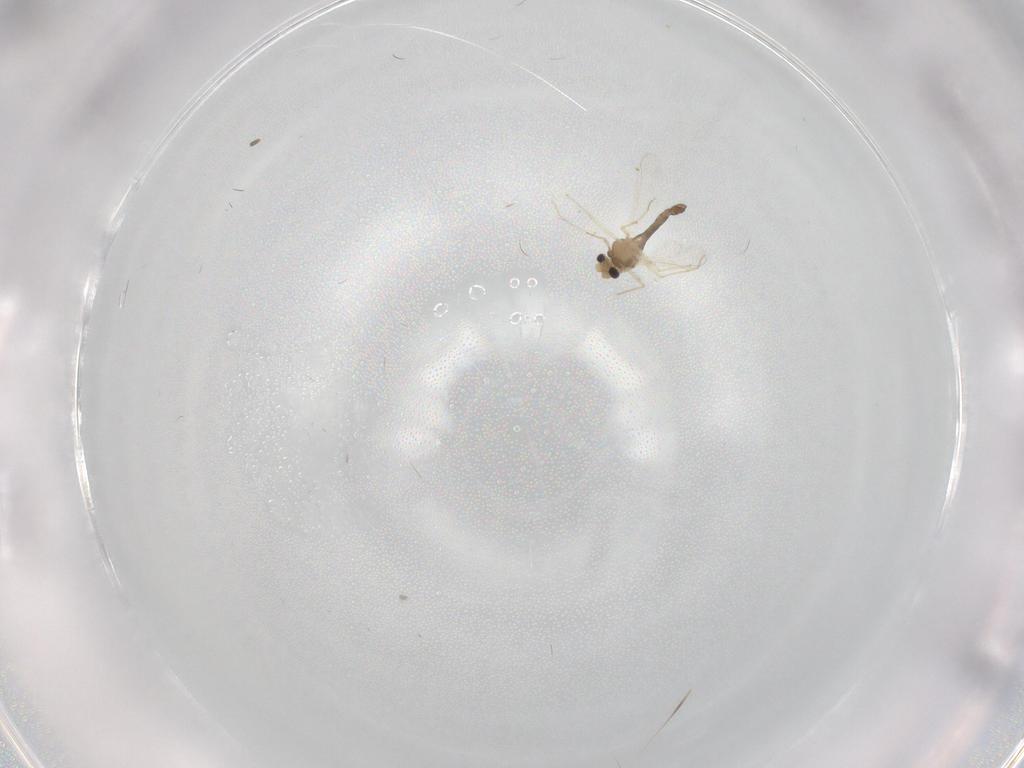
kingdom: Animalia
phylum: Arthropoda
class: Insecta
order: Diptera
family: Chironomidae
